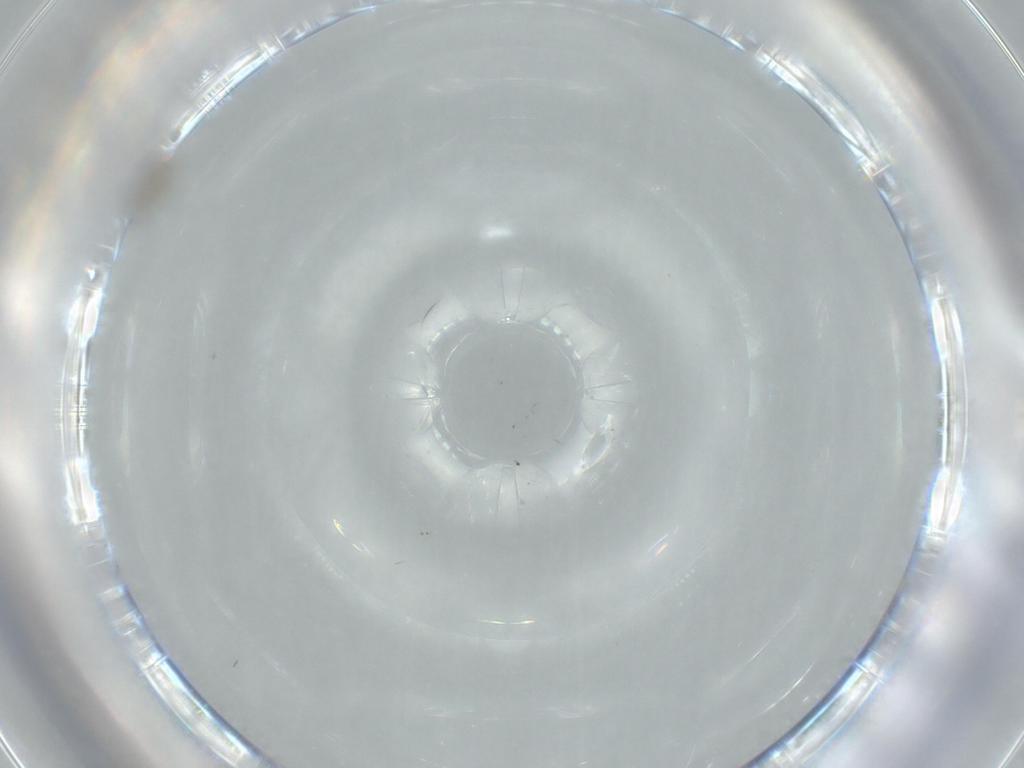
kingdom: Animalia
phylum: Arthropoda
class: Insecta
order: Diptera
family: Cecidomyiidae
